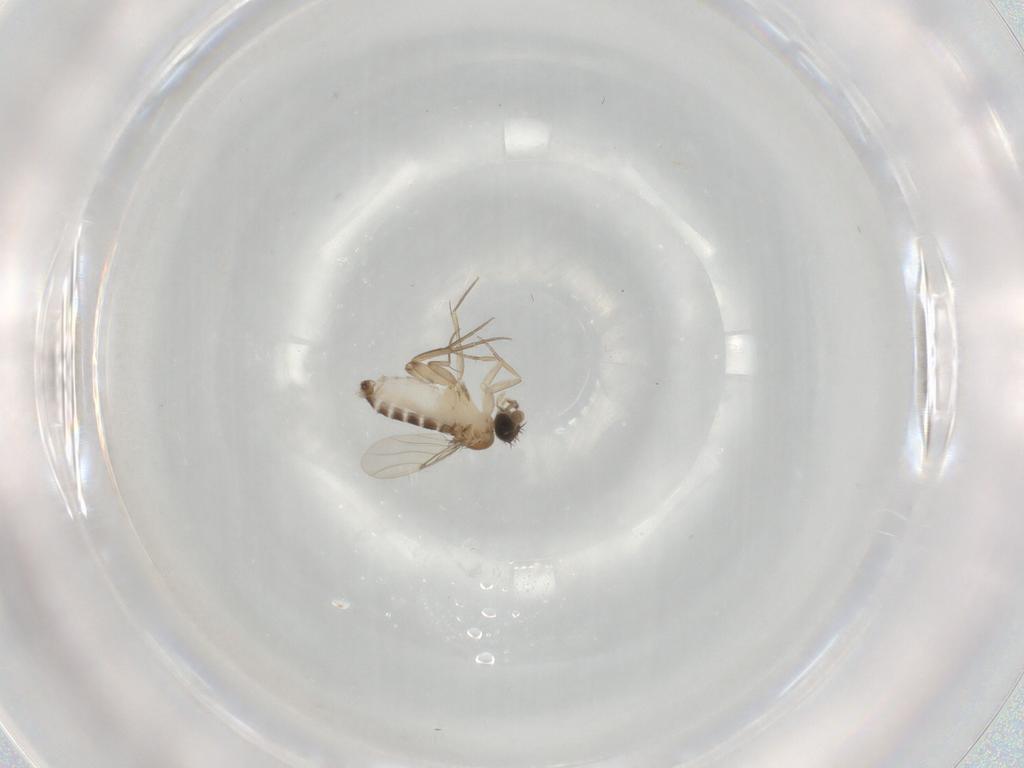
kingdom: Animalia
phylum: Arthropoda
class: Insecta
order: Diptera
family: Phoridae
